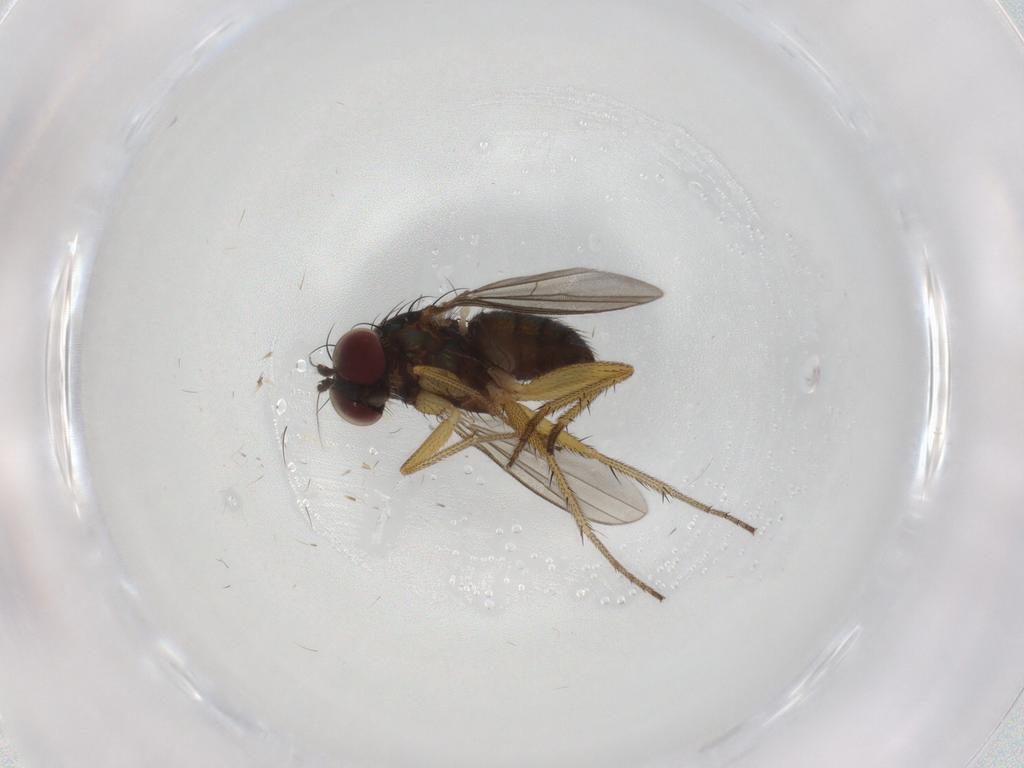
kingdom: Animalia
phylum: Arthropoda
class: Insecta
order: Diptera
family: Dolichopodidae
